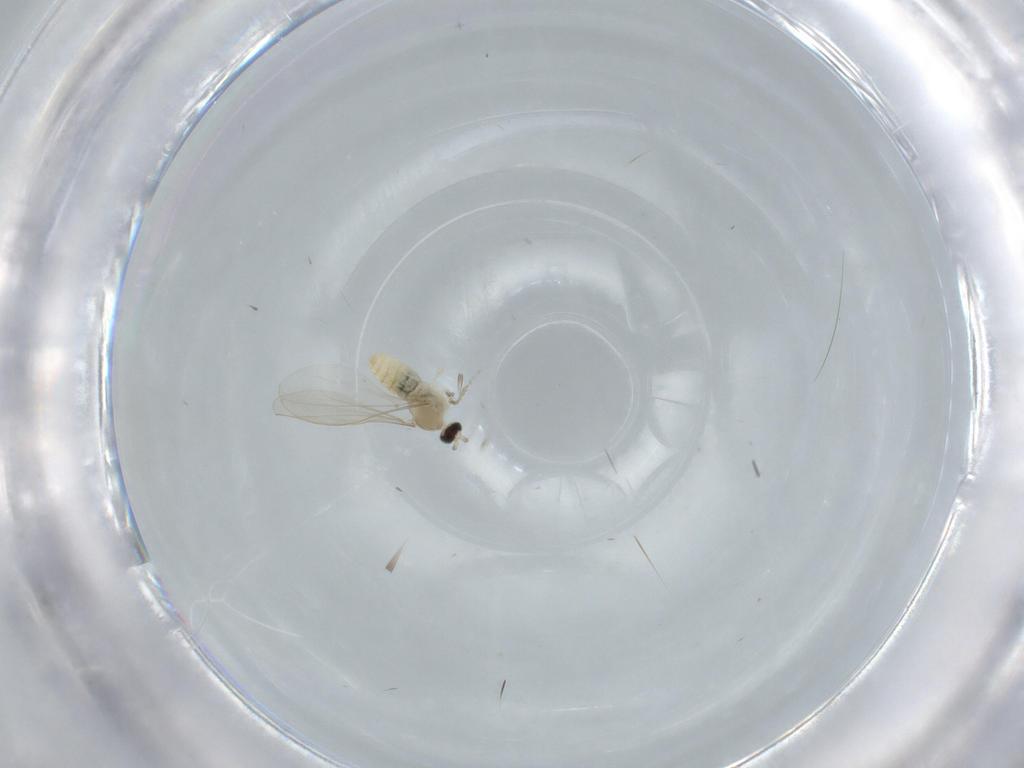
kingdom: Animalia
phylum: Arthropoda
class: Insecta
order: Diptera
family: Cecidomyiidae
